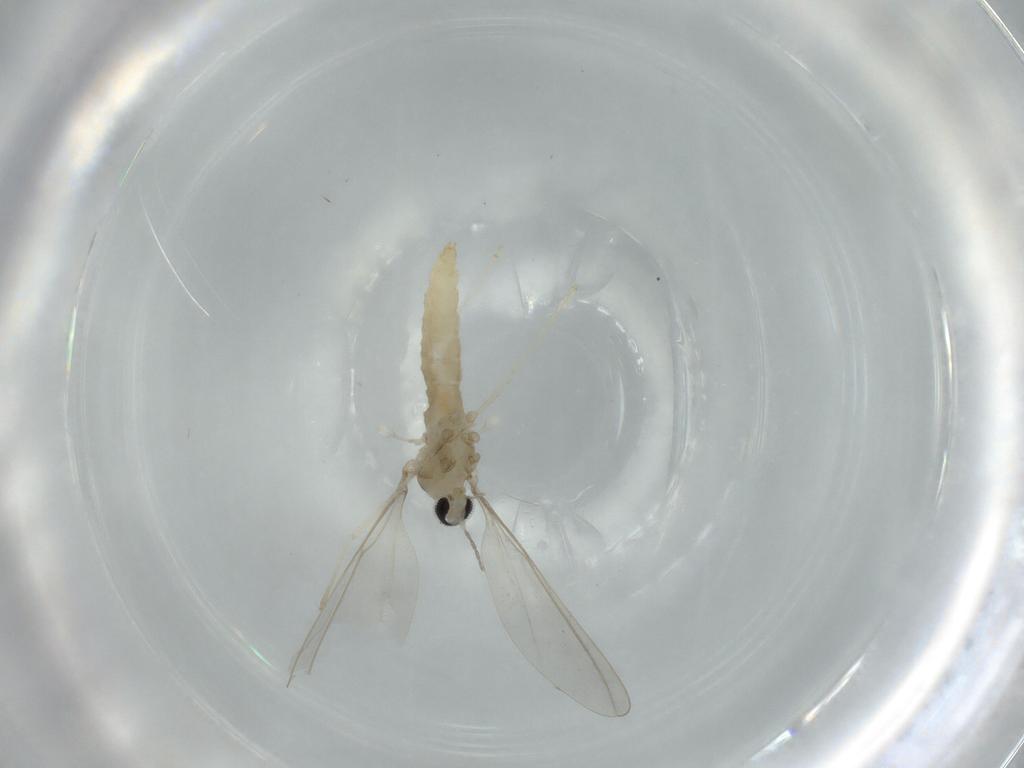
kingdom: Animalia
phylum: Arthropoda
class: Insecta
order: Diptera
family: Cecidomyiidae
